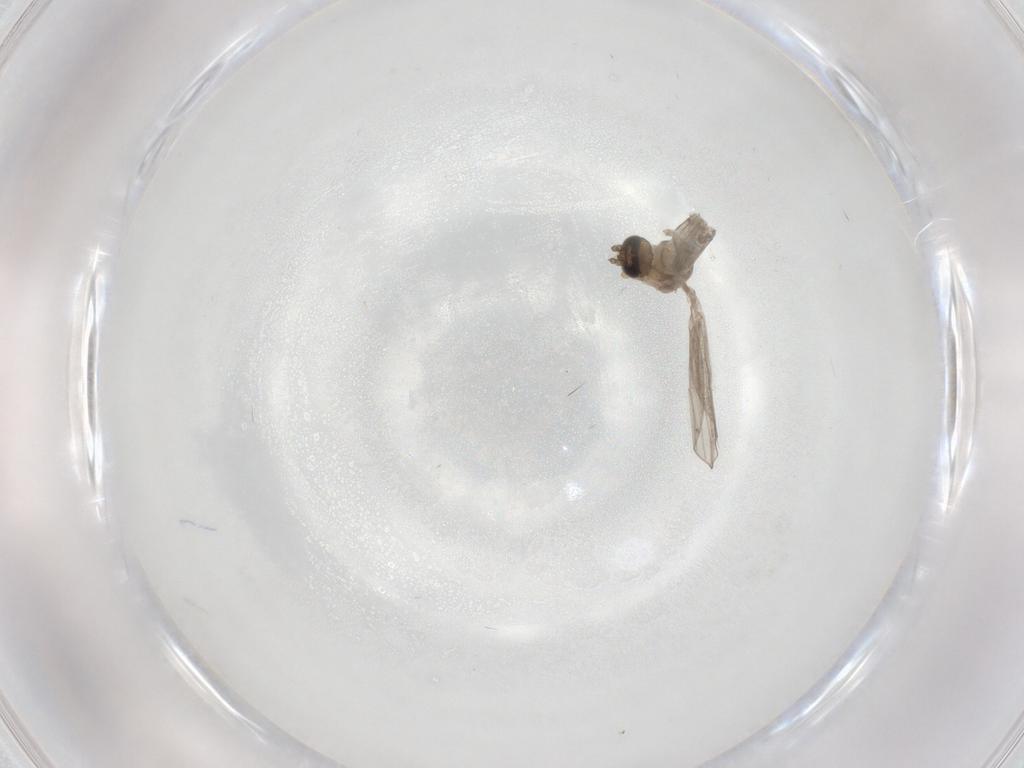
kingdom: Animalia
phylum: Arthropoda
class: Insecta
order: Diptera
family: Psychodidae
